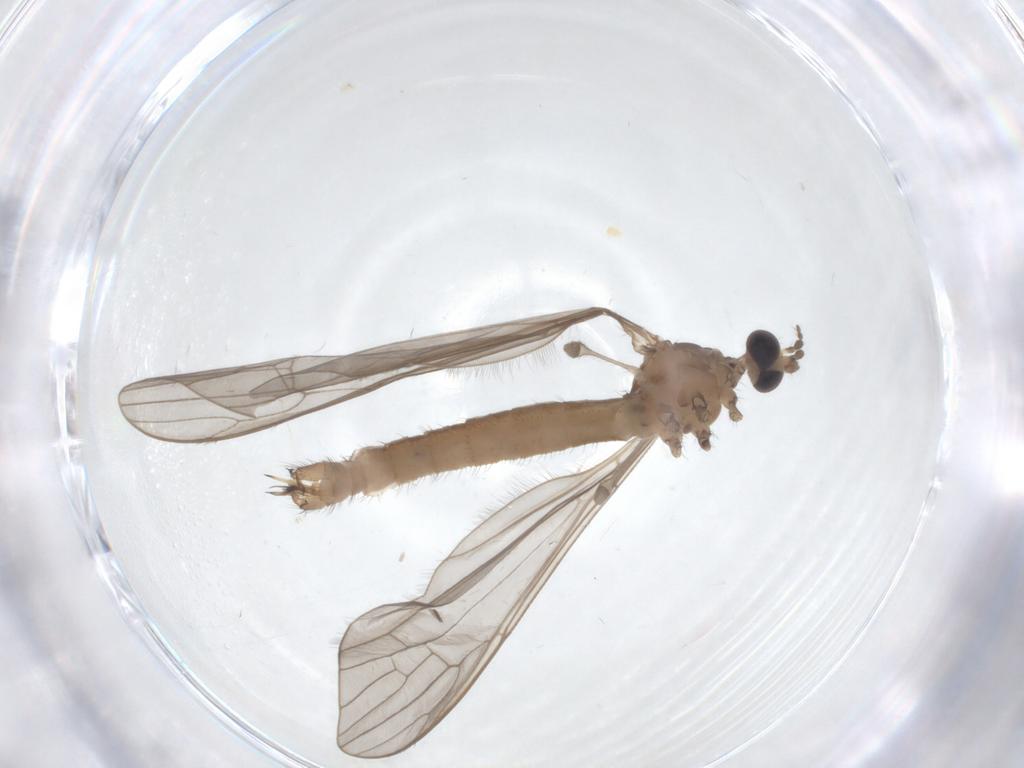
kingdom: Animalia
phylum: Arthropoda
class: Insecta
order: Diptera
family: Limoniidae
